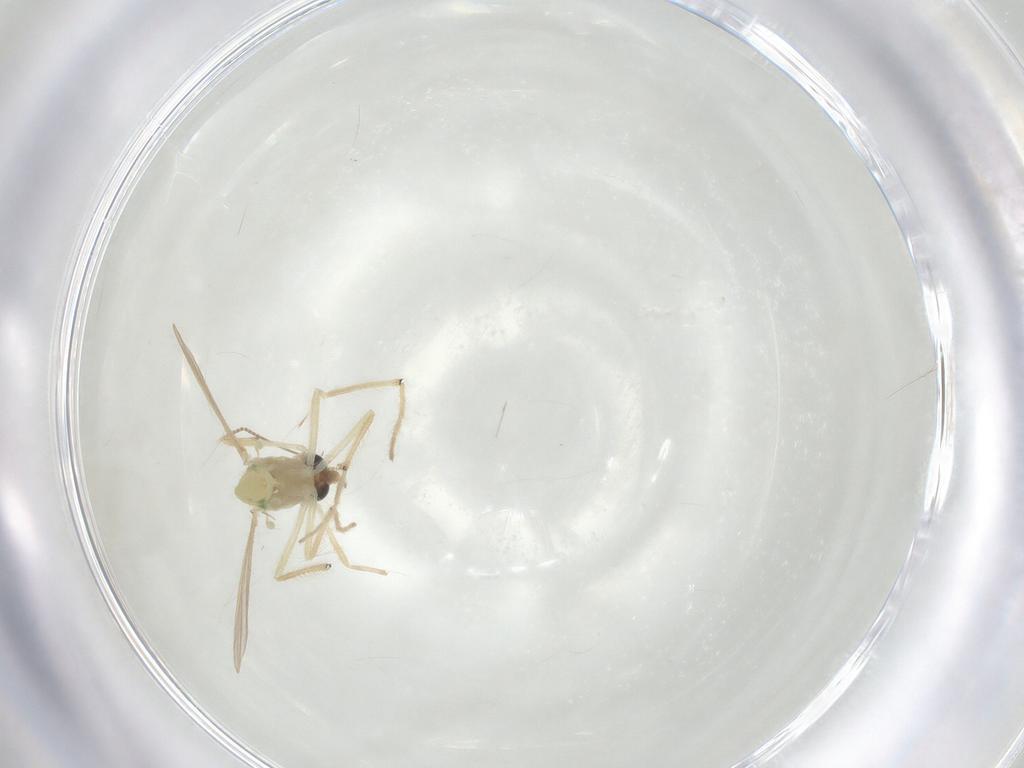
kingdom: Animalia
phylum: Arthropoda
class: Insecta
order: Diptera
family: Chironomidae
